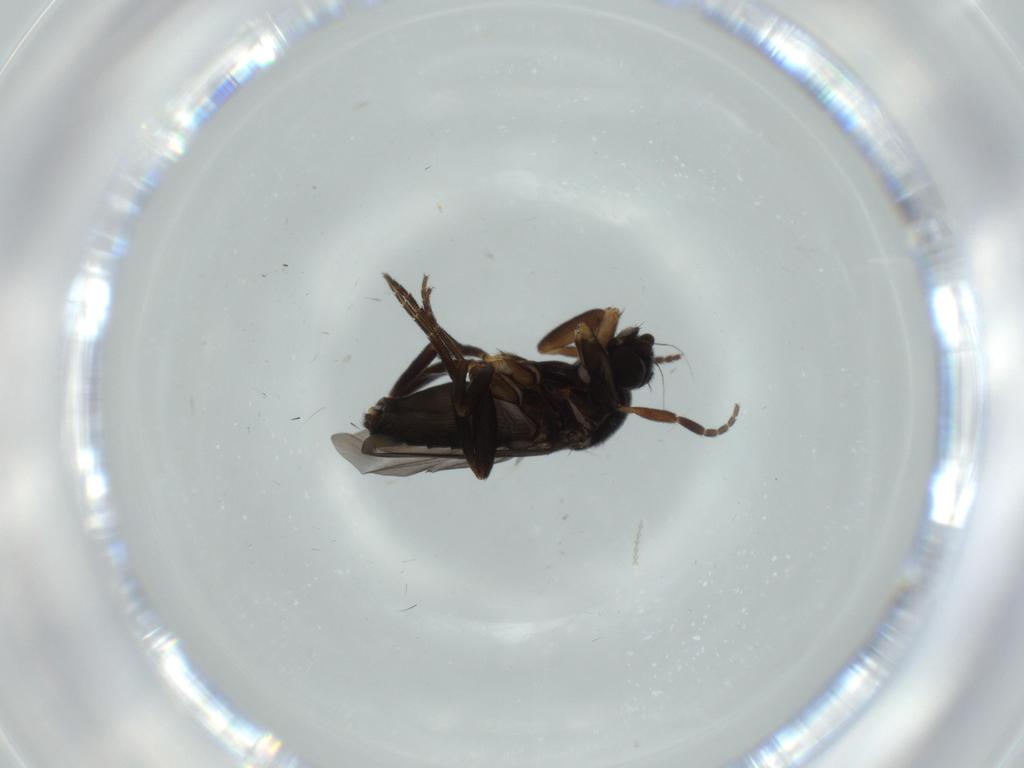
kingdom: Animalia
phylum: Arthropoda
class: Insecta
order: Diptera
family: Phoridae
